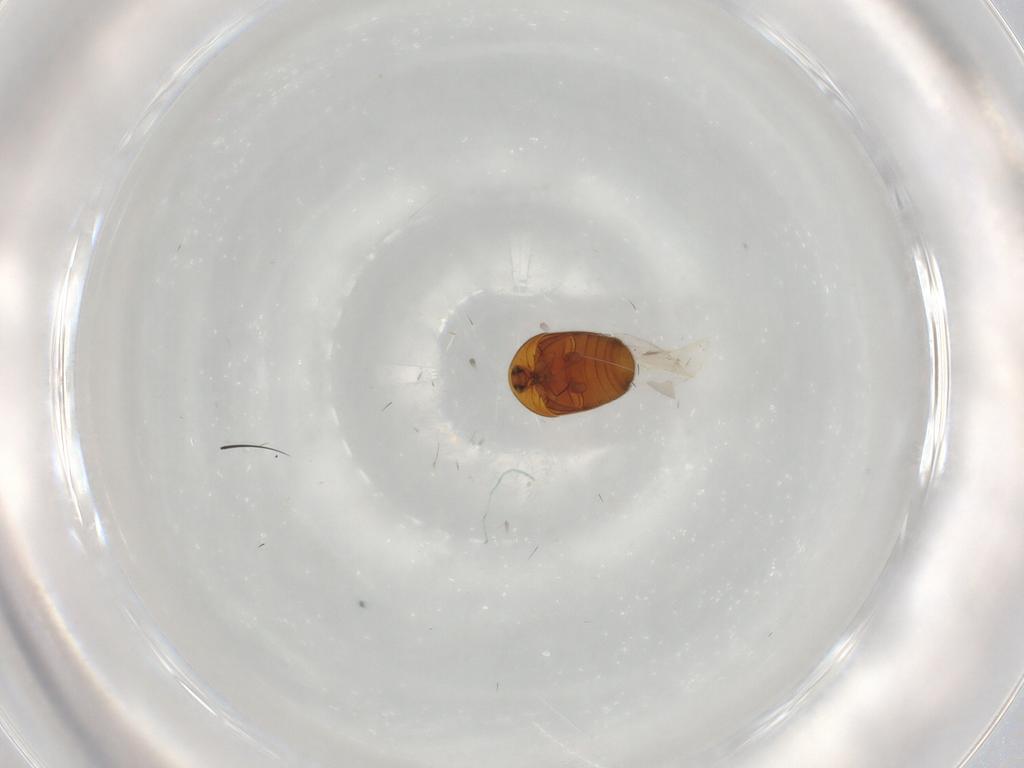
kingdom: Animalia
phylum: Arthropoda
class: Insecta
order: Coleoptera
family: Corylophidae
